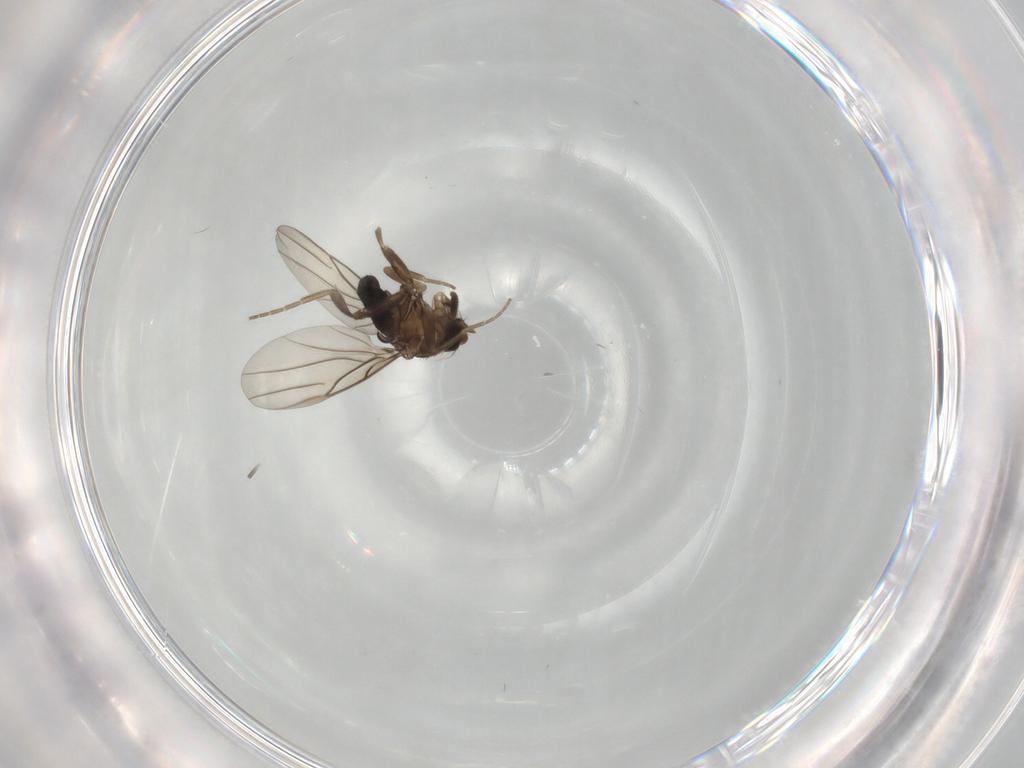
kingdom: Animalia
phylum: Arthropoda
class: Insecta
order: Diptera
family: Phoridae
